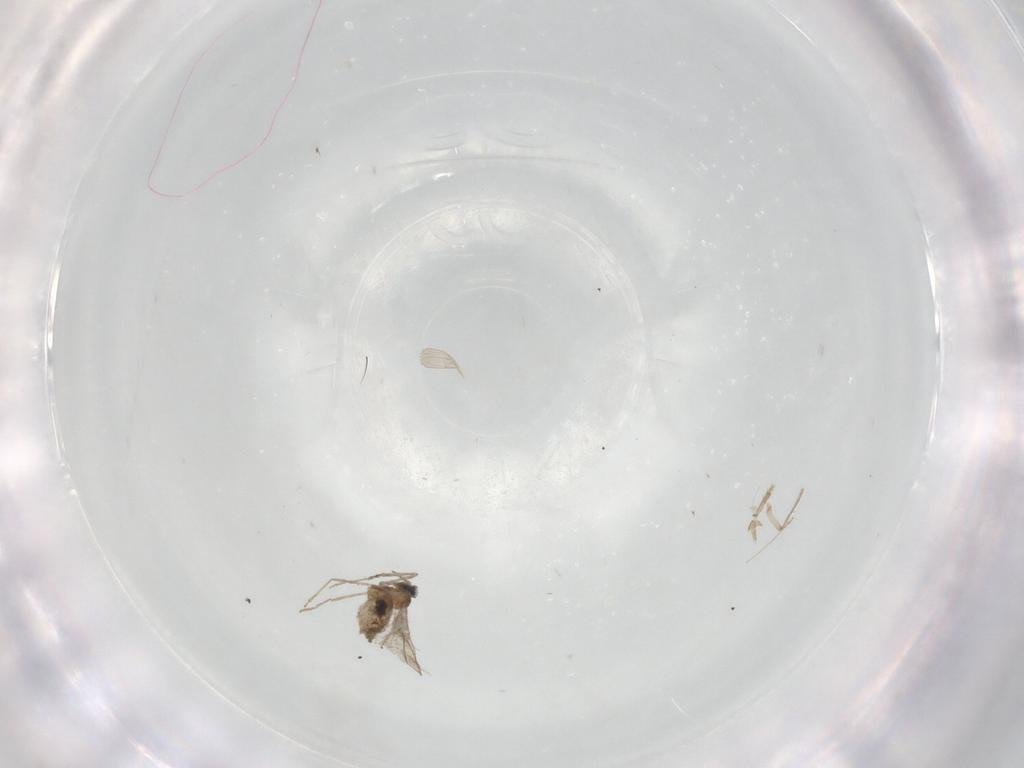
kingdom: Animalia
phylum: Arthropoda
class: Insecta
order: Diptera
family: Cecidomyiidae
